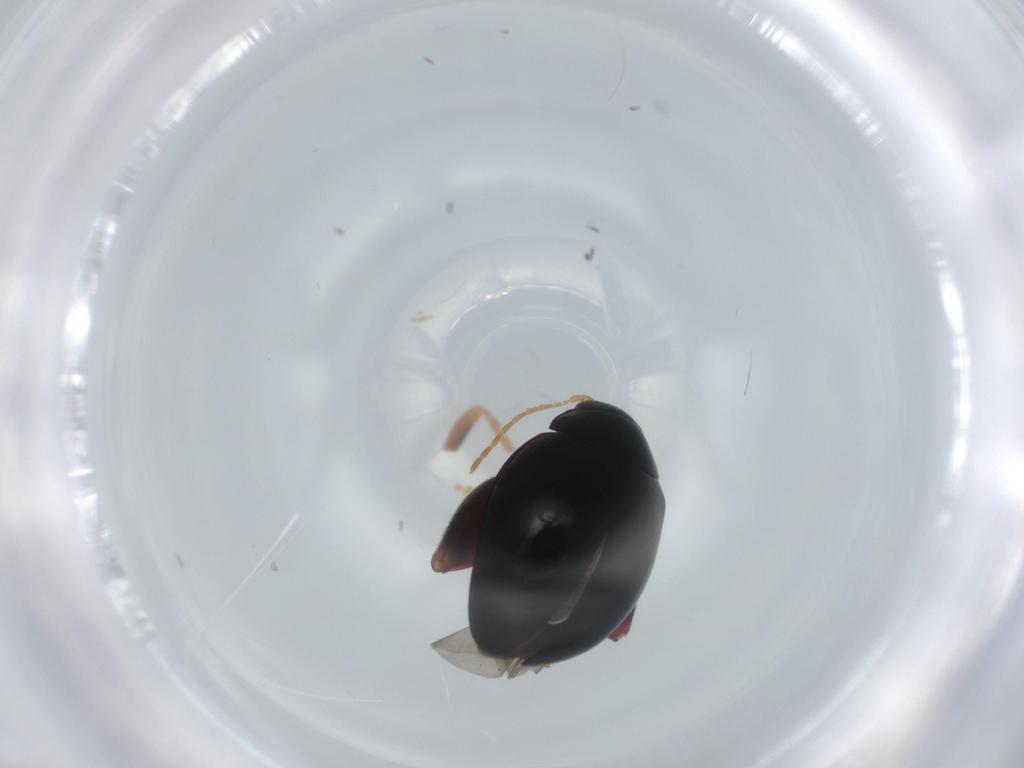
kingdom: Animalia
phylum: Arthropoda
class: Insecta
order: Coleoptera
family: Chrysomelidae
